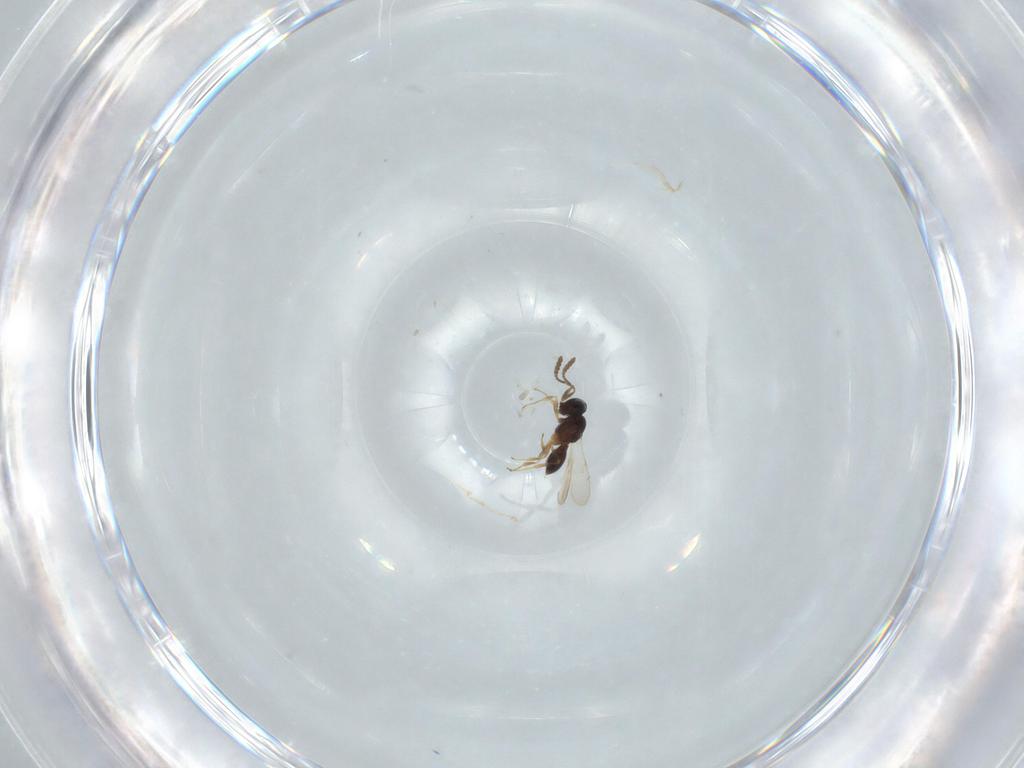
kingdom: Animalia
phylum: Arthropoda
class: Insecta
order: Hymenoptera
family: Scelionidae
